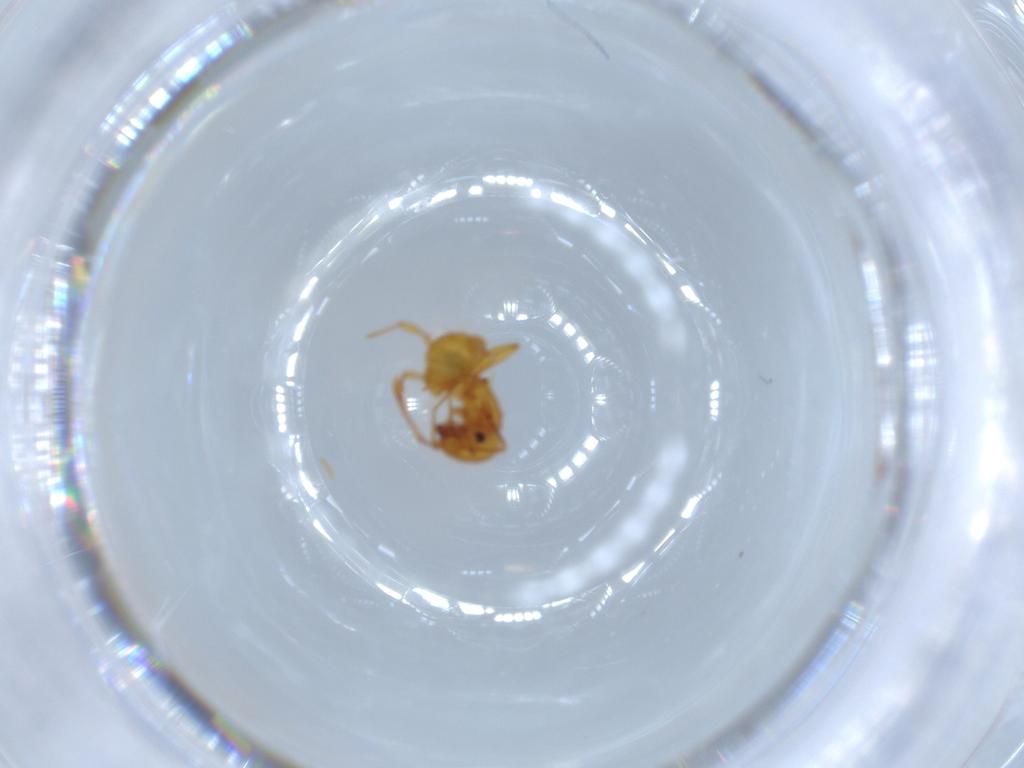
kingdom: Animalia
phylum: Arthropoda
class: Insecta
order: Hymenoptera
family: Formicidae
